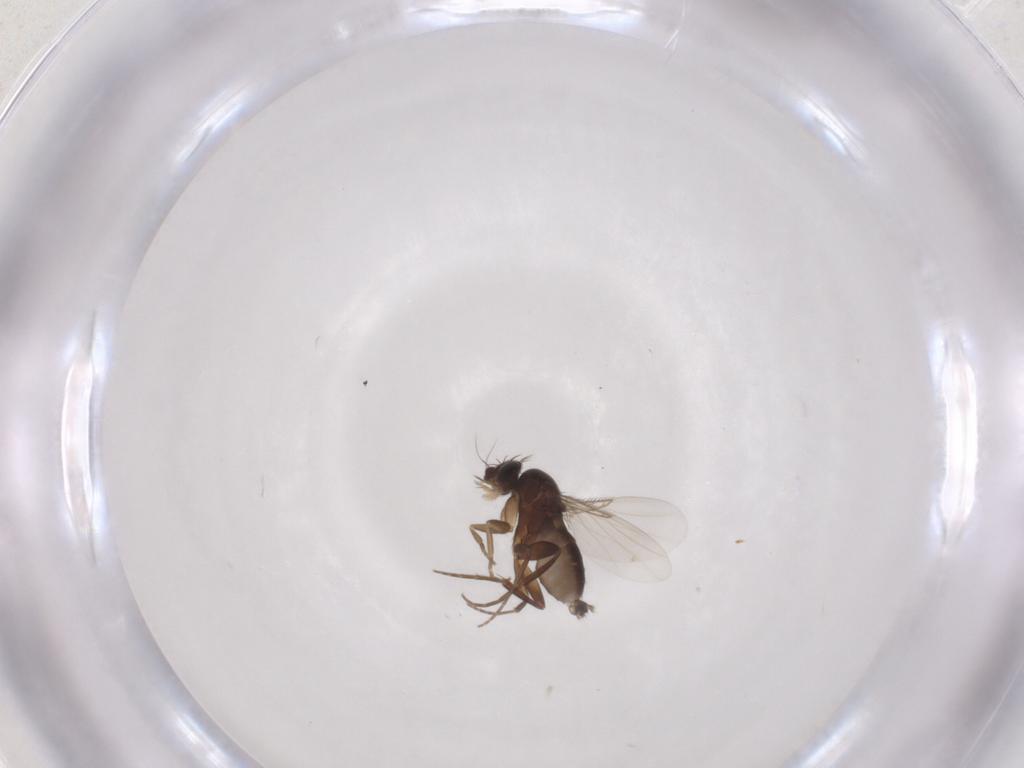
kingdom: Animalia
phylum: Arthropoda
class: Insecta
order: Diptera
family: Phoridae
